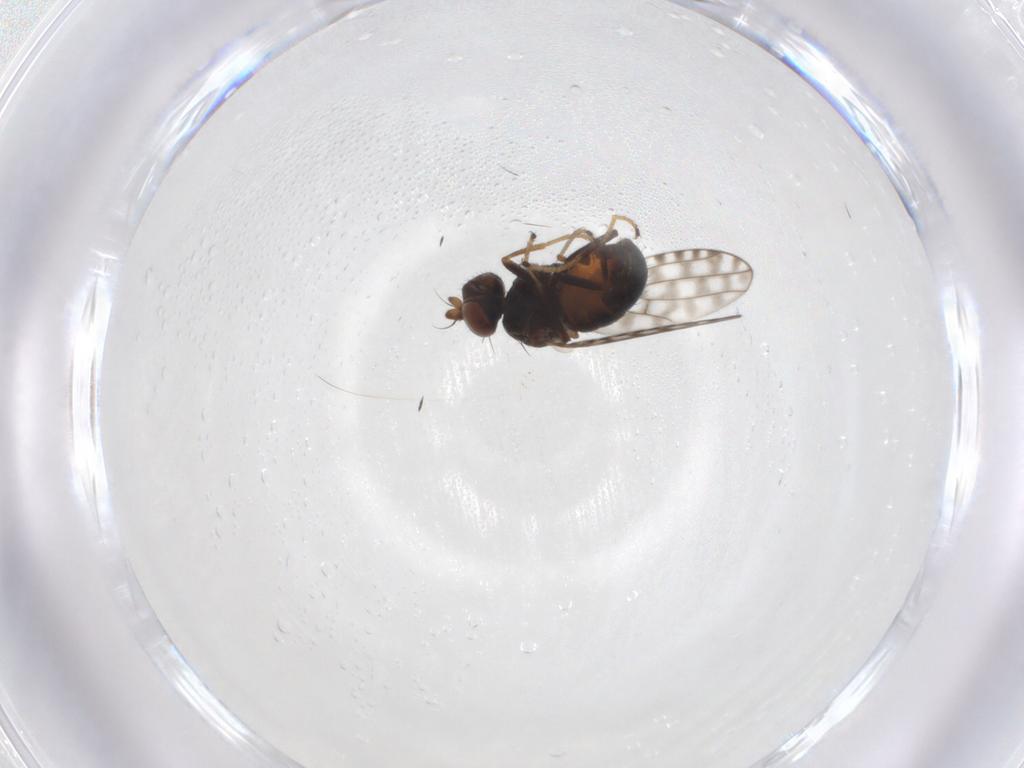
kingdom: Animalia
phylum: Arthropoda
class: Insecta
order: Diptera
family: Ephydridae
